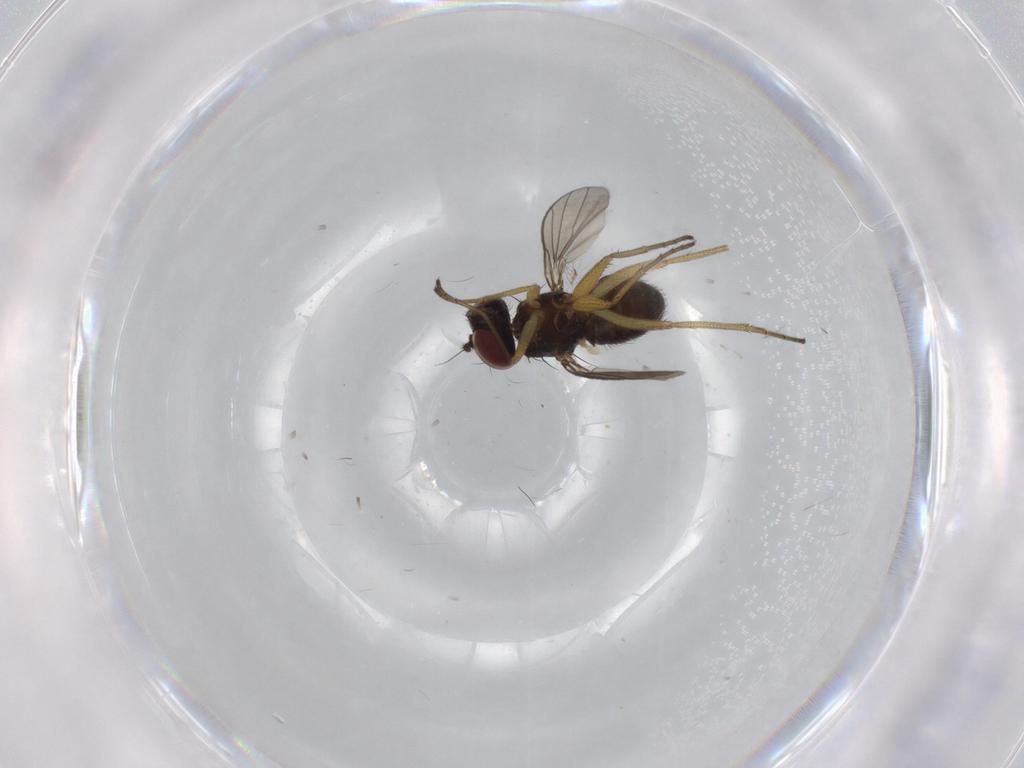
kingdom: Animalia
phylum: Arthropoda
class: Insecta
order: Diptera
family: Dolichopodidae
